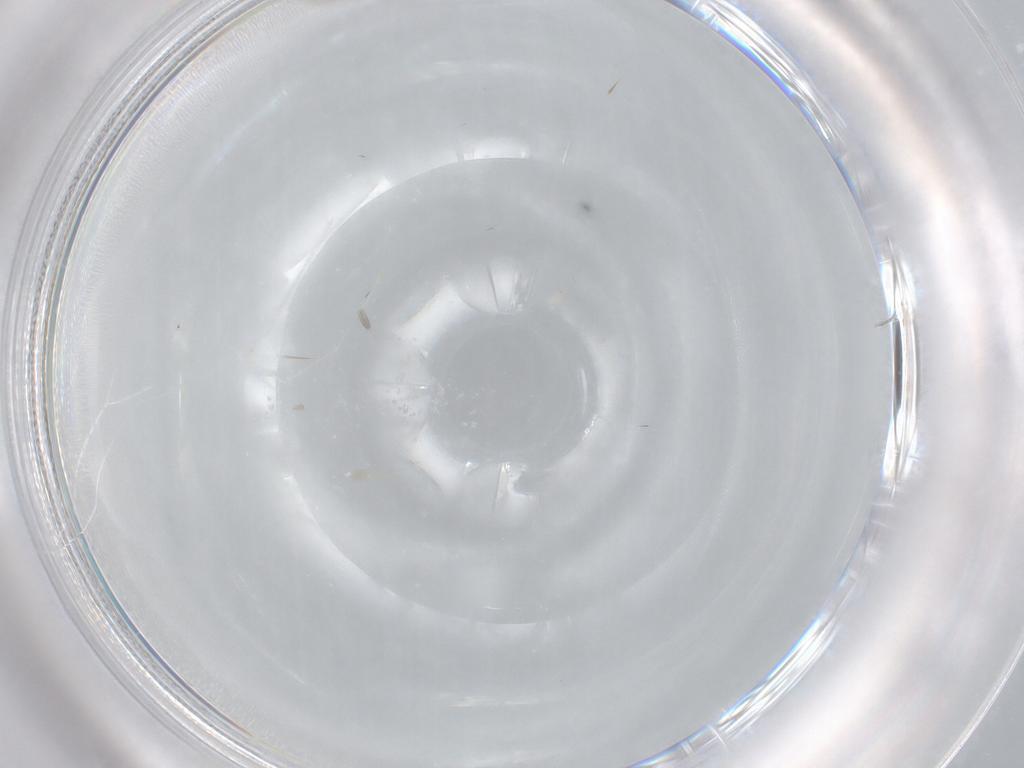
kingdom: Animalia
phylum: Arthropoda
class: Insecta
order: Diptera
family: Chironomidae
